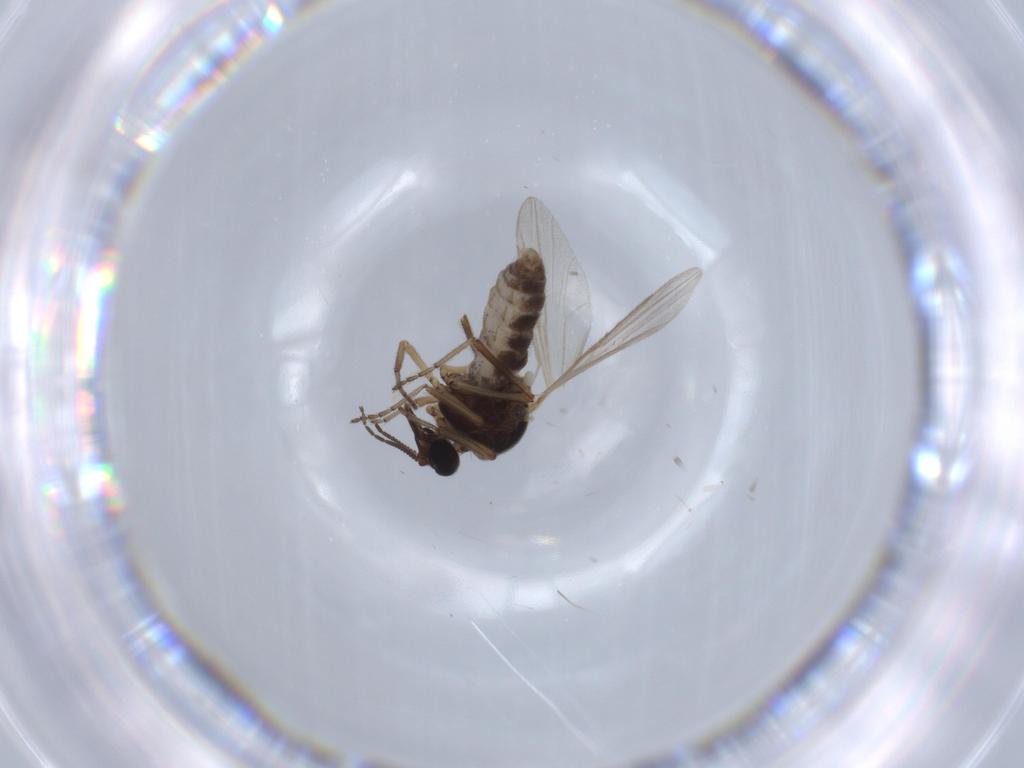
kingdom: Animalia
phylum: Arthropoda
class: Insecta
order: Diptera
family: Ceratopogonidae
